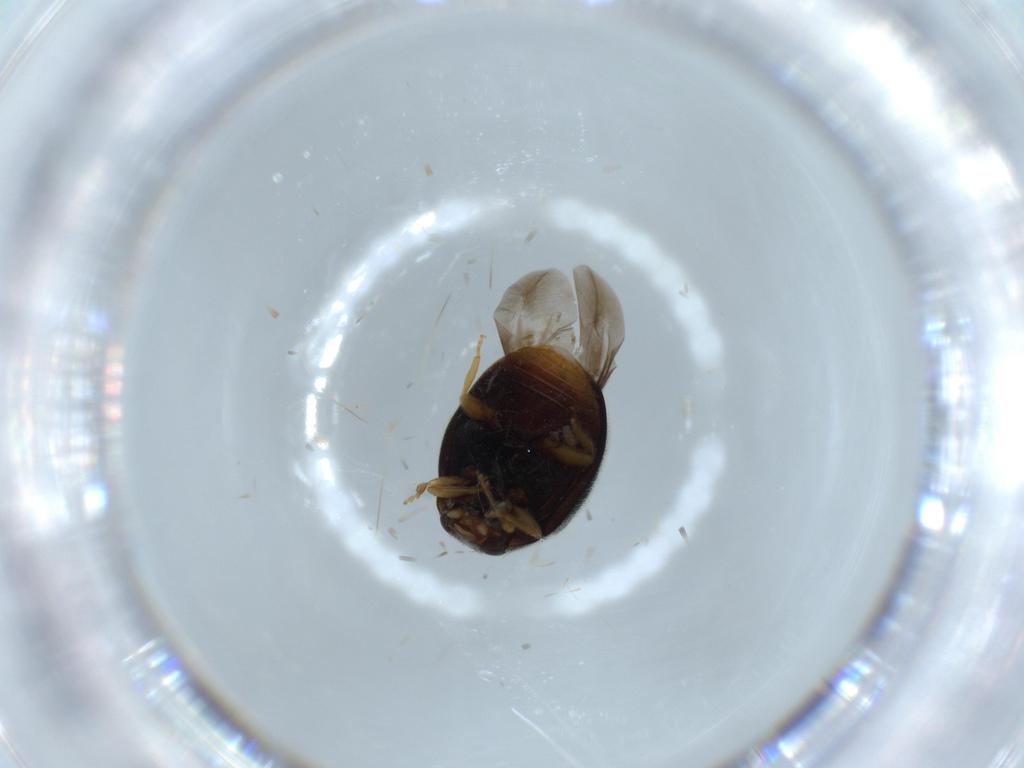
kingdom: Animalia
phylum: Arthropoda
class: Insecta
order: Coleoptera
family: Coccinellidae
